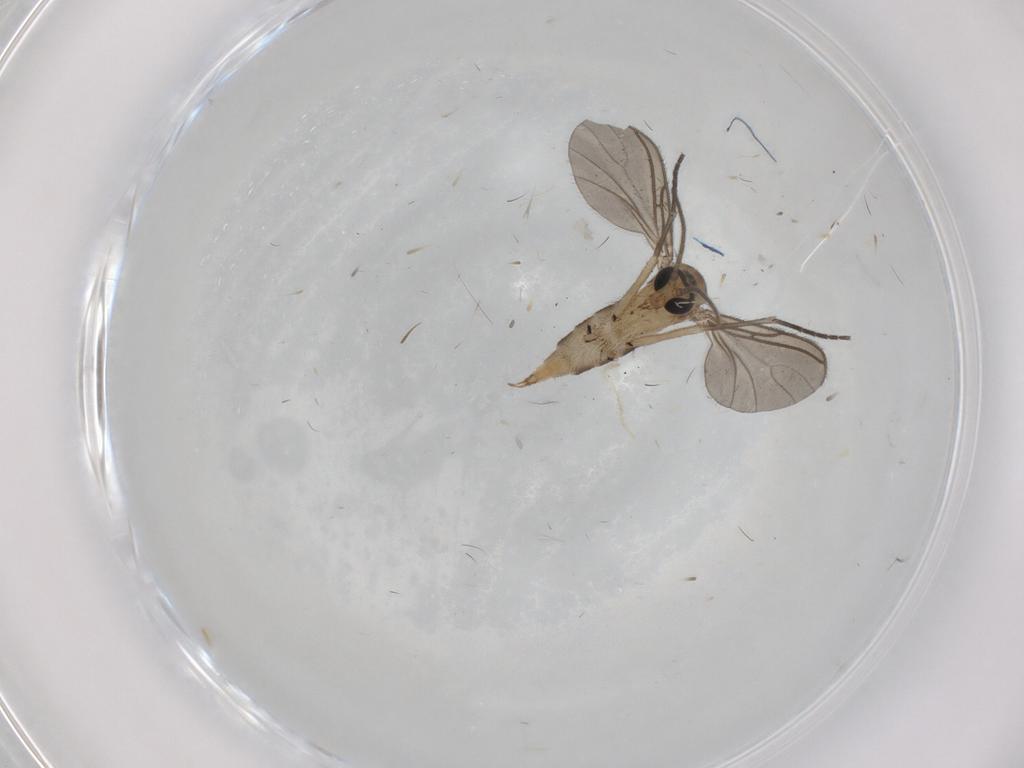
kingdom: Animalia
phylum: Arthropoda
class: Insecta
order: Diptera
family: Sciaridae
